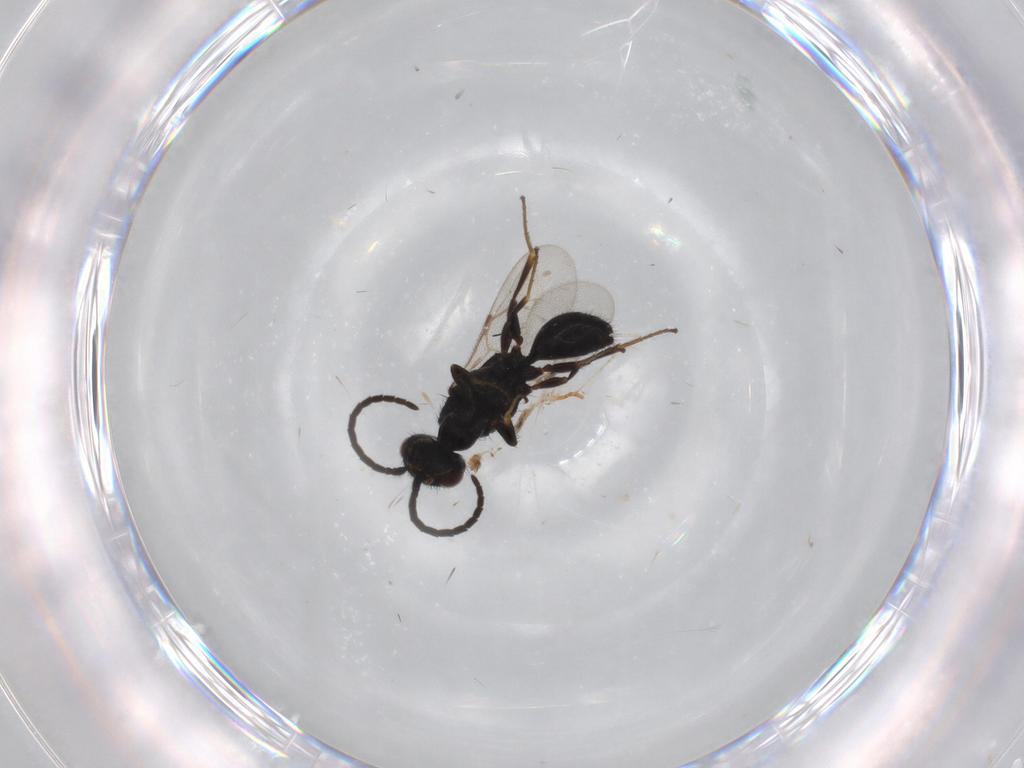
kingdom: Animalia
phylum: Arthropoda
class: Insecta
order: Hymenoptera
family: Bethylidae
